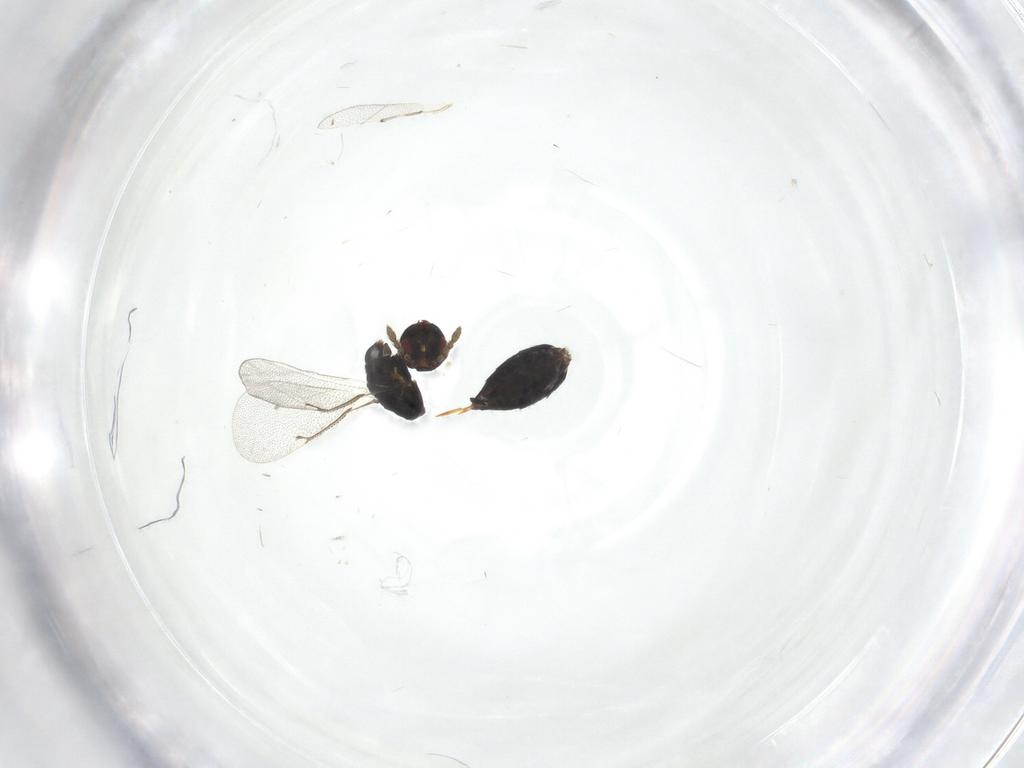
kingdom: Animalia
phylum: Arthropoda
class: Insecta
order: Hymenoptera
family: Eulophidae
